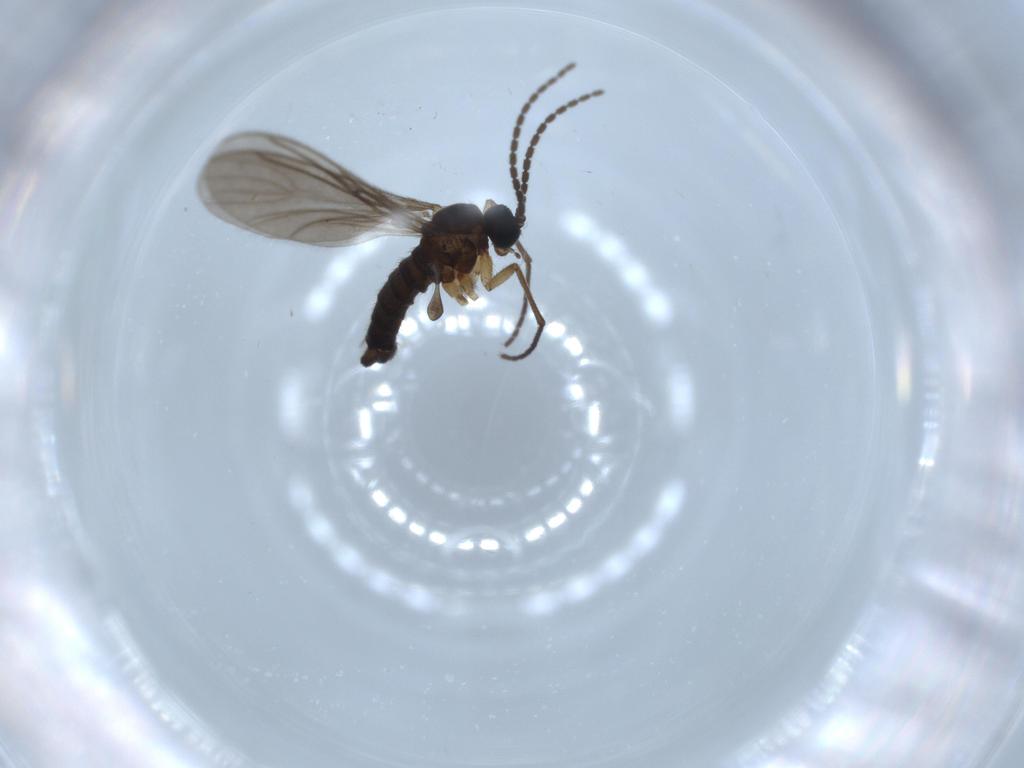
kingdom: Animalia
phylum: Arthropoda
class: Insecta
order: Diptera
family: Sciaridae
